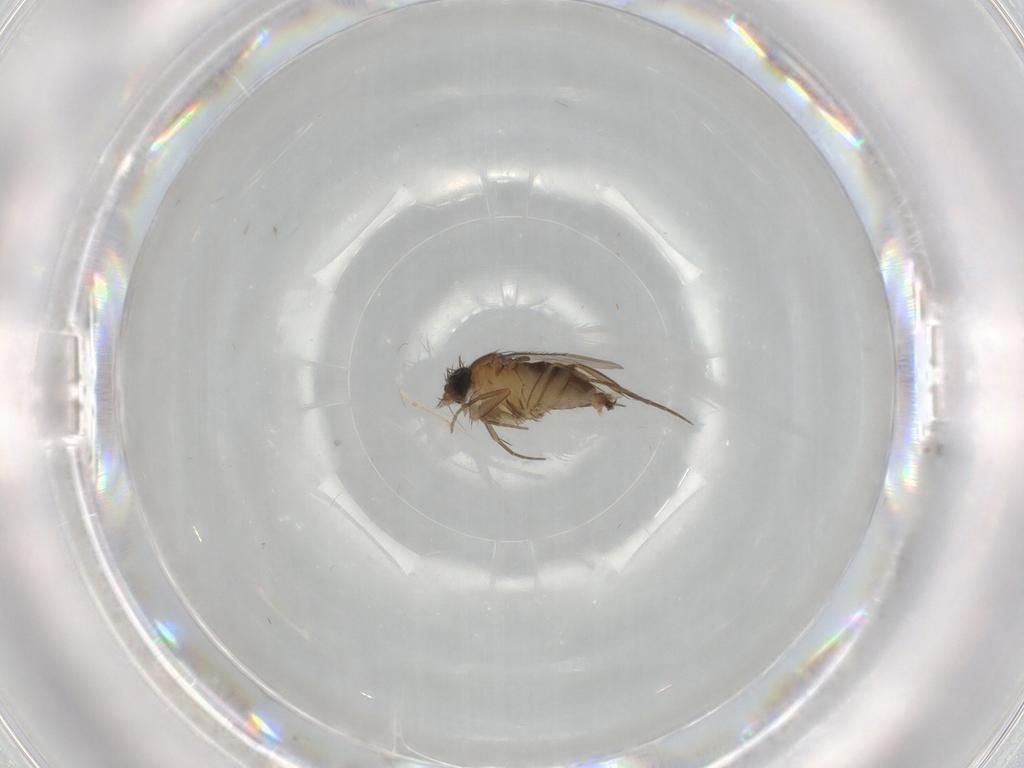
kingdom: Animalia
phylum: Arthropoda
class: Insecta
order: Diptera
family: Phoridae
